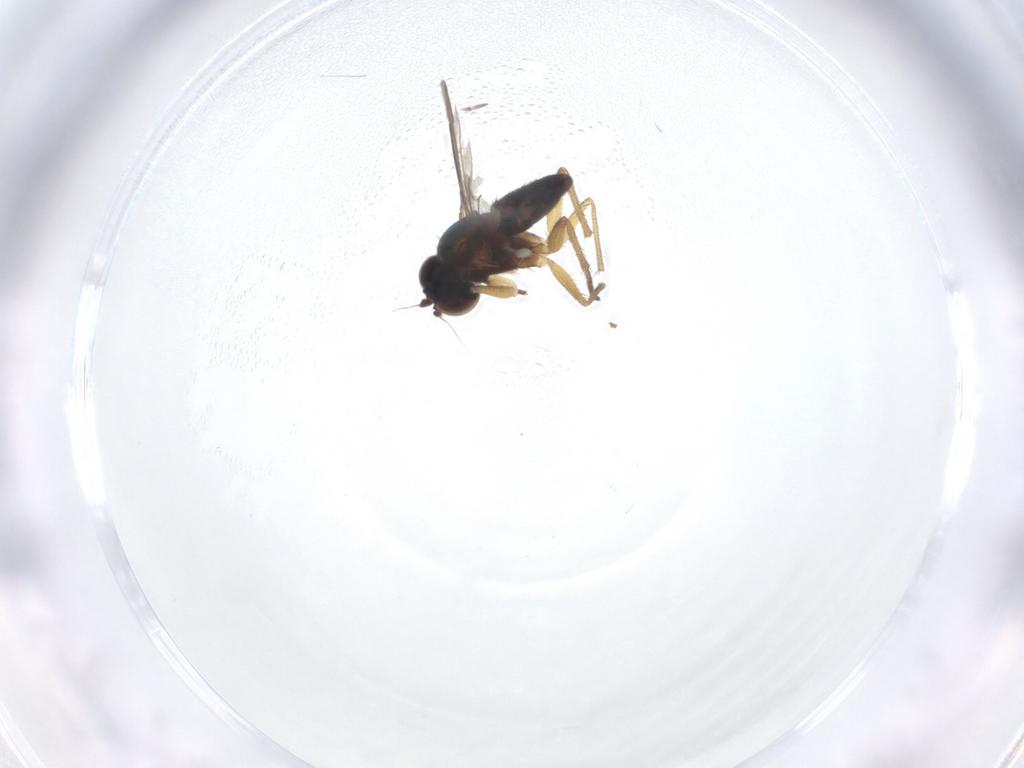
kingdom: Animalia
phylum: Arthropoda
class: Insecta
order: Diptera
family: Dolichopodidae
